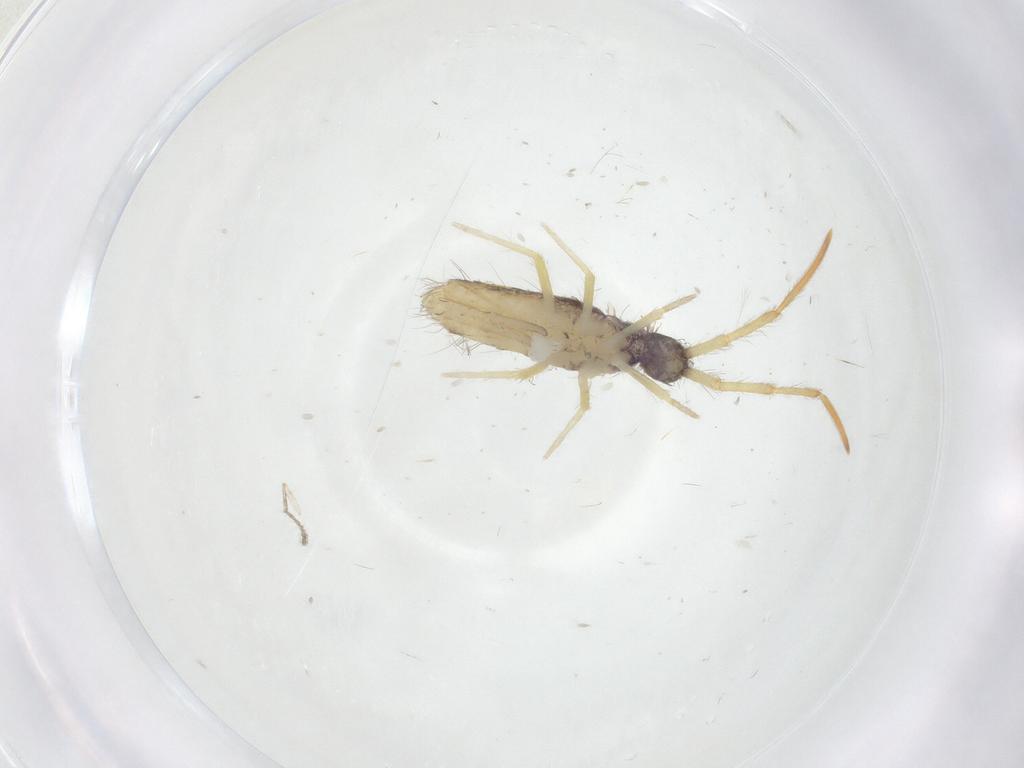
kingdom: Animalia
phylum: Arthropoda
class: Collembola
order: Entomobryomorpha
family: Entomobryidae
